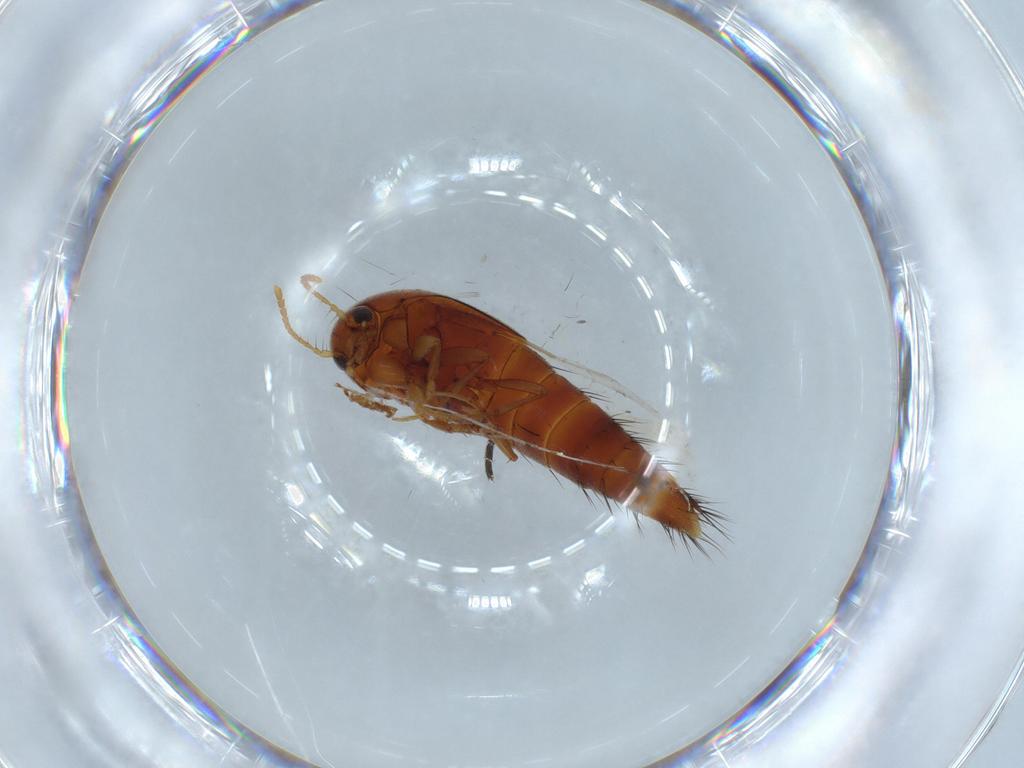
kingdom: Animalia
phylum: Arthropoda
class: Insecta
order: Coleoptera
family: Staphylinidae
